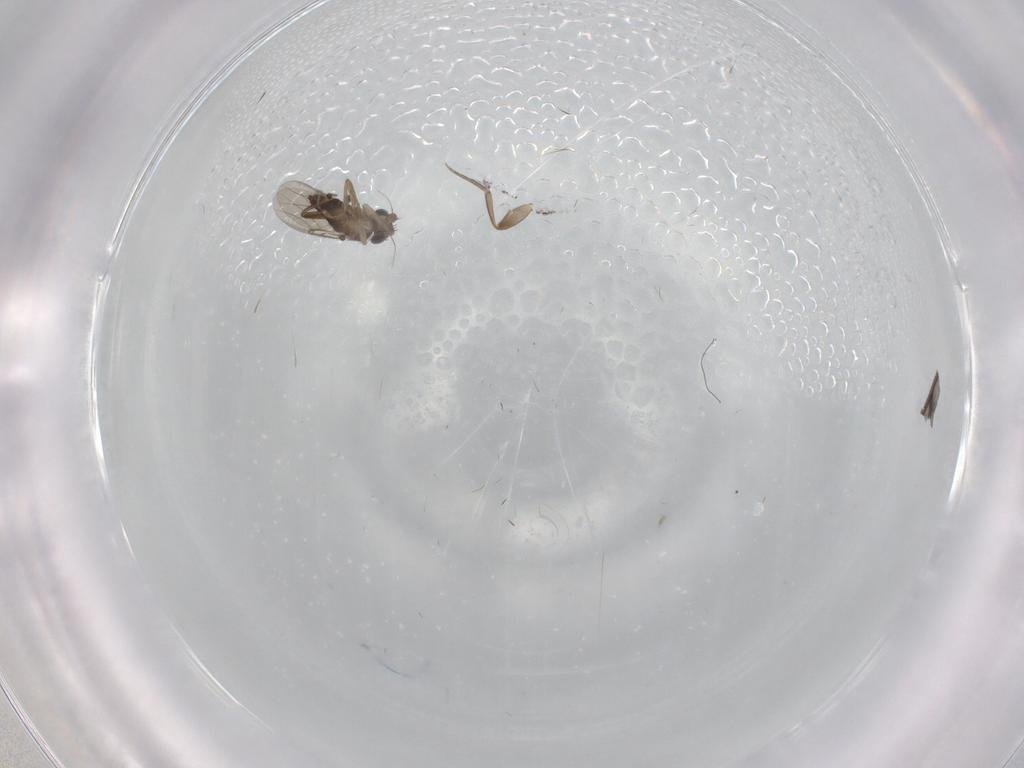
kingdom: Animalia
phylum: Arthropoda
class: Insecta
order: Diptera
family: Phoridae
